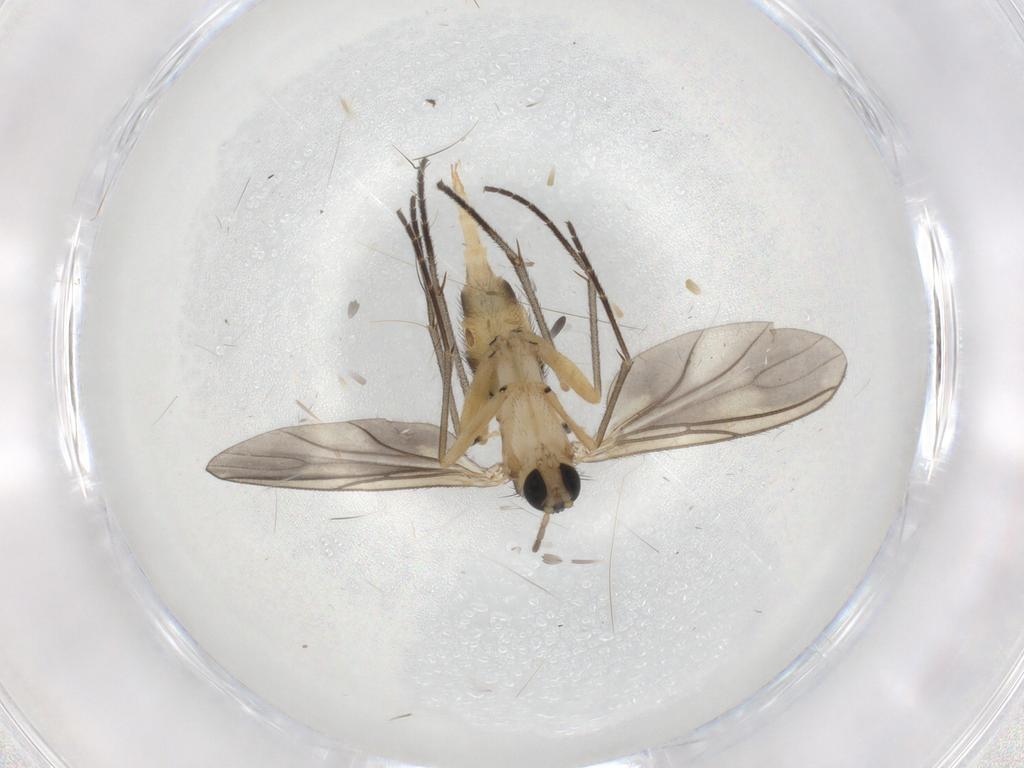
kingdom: Animalia
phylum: Arthropoda
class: Insecta
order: Diptera
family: Sciaridae
